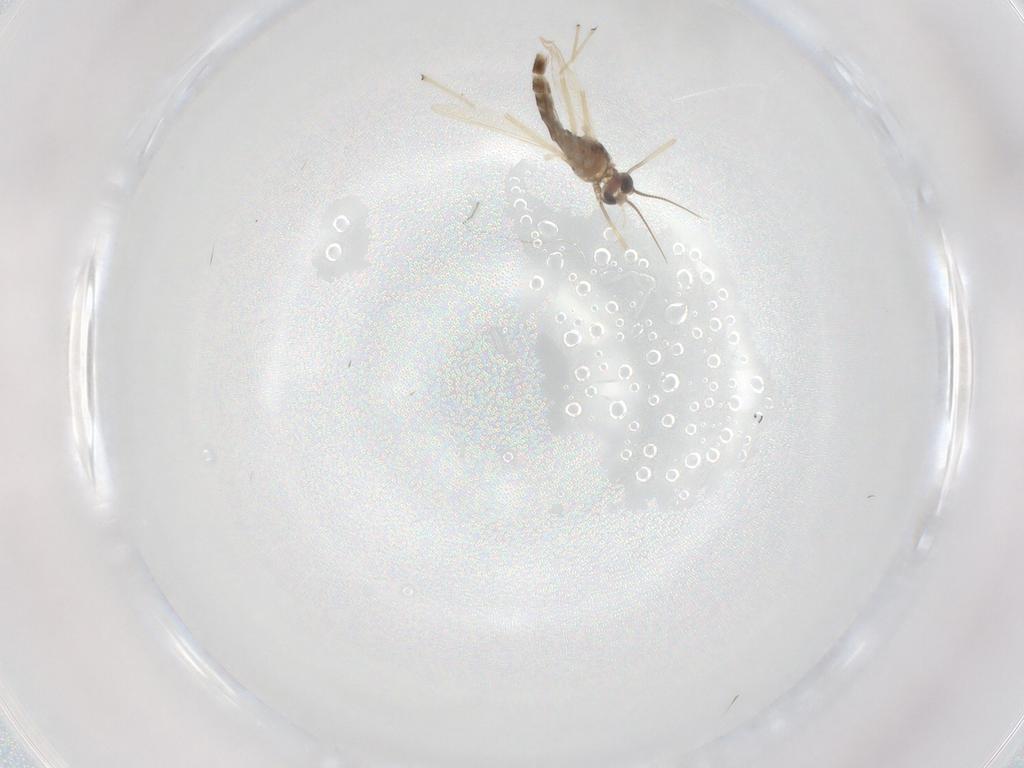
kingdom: Animalia
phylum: Arthropoda
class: Insecta
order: Diptera
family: Chironomidae
